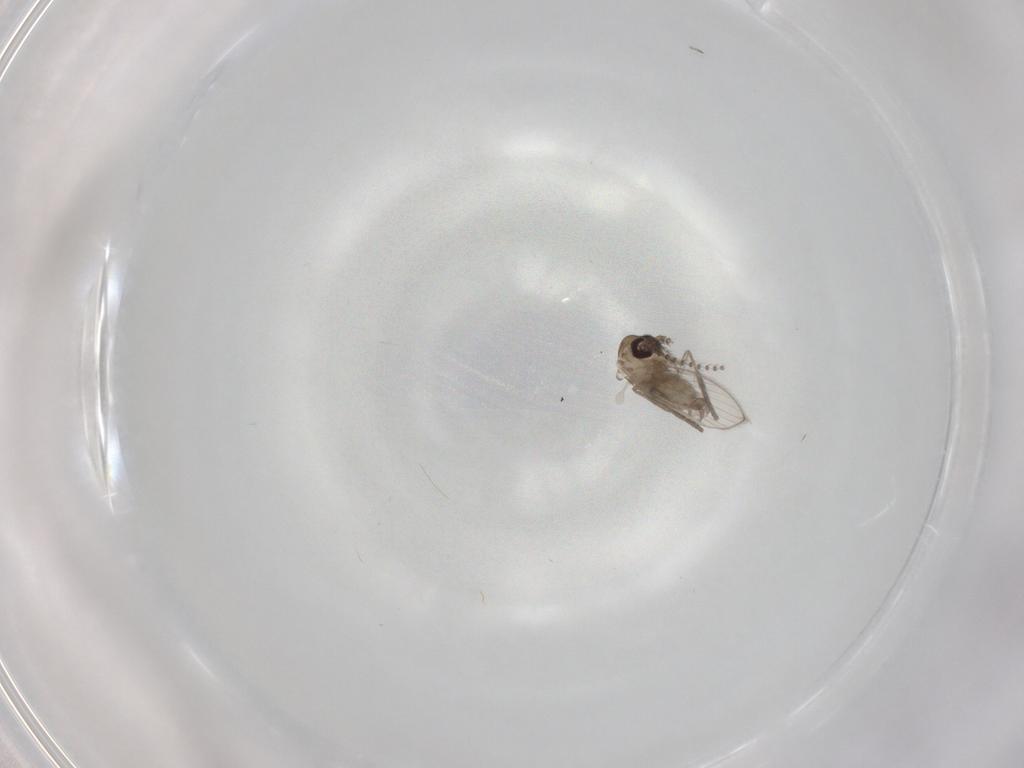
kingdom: Animalia
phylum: Arthropoda
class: Insecta
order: Diptera
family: Psychodidae
